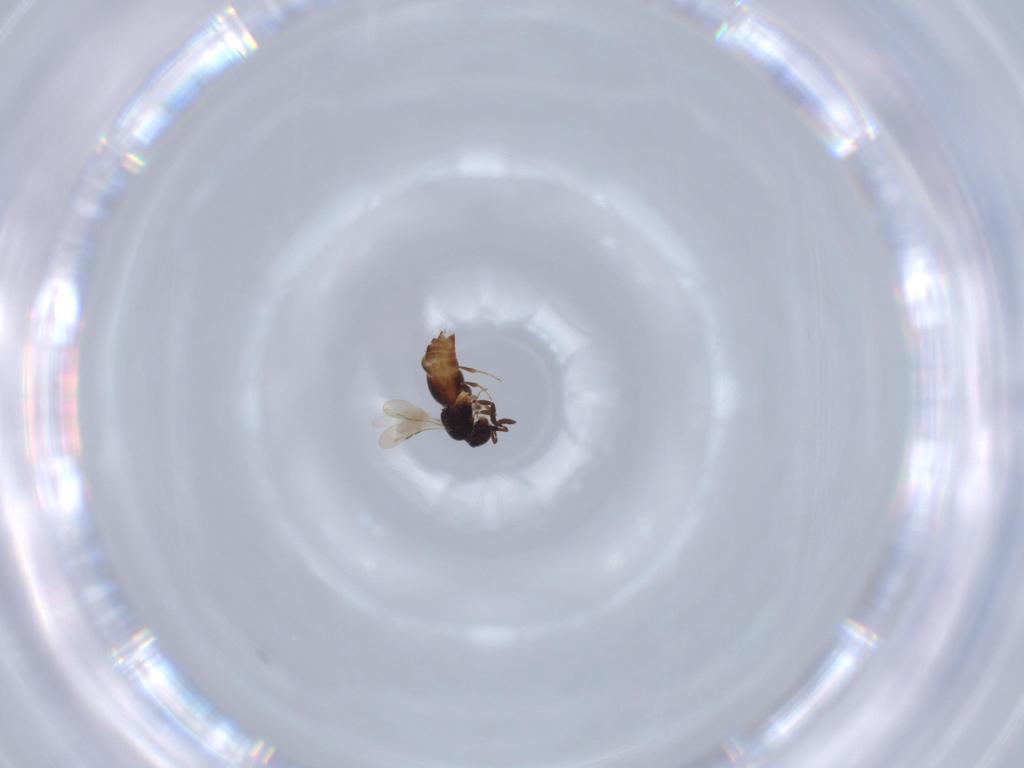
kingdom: Animalia
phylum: Arthropoda
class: Insecta
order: Hymenoptera
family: Ceraphronidae
